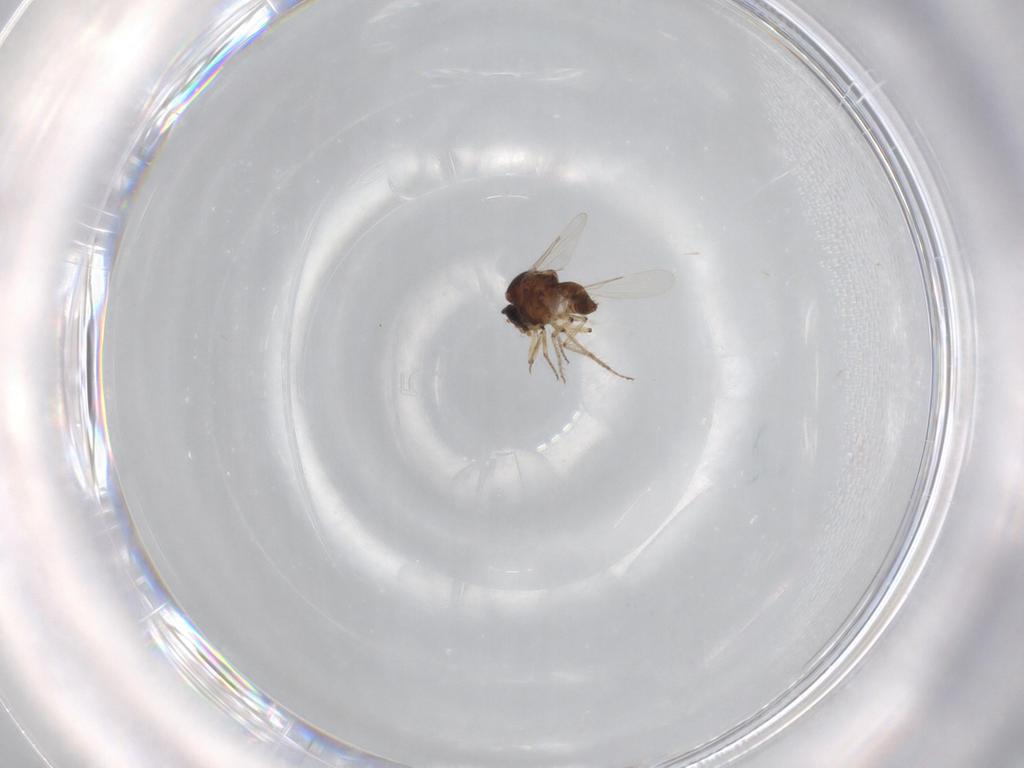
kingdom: Animalia
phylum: Arthropoda
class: Insecta
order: Diptera
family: Ceratopogonidae
